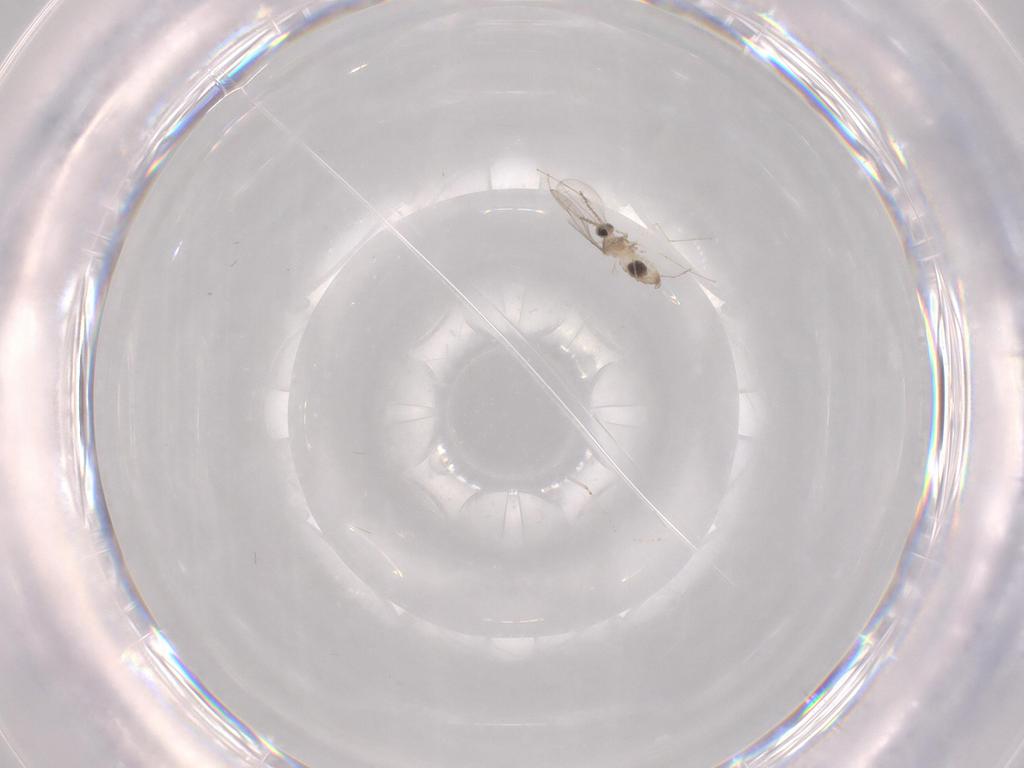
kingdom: Animalia
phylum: Arthropoda
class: Insecta
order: Diptera
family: Cecidomyiidae
